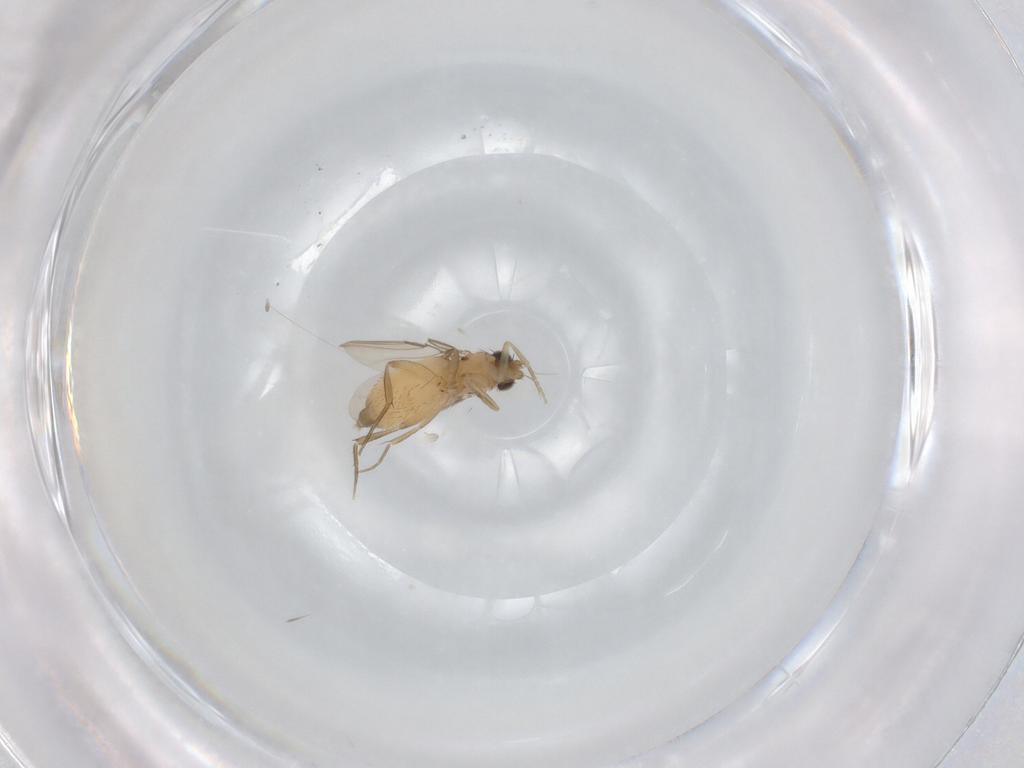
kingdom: Animalia
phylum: Arthropoda
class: Insecta
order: Diptera
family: Phoridae
